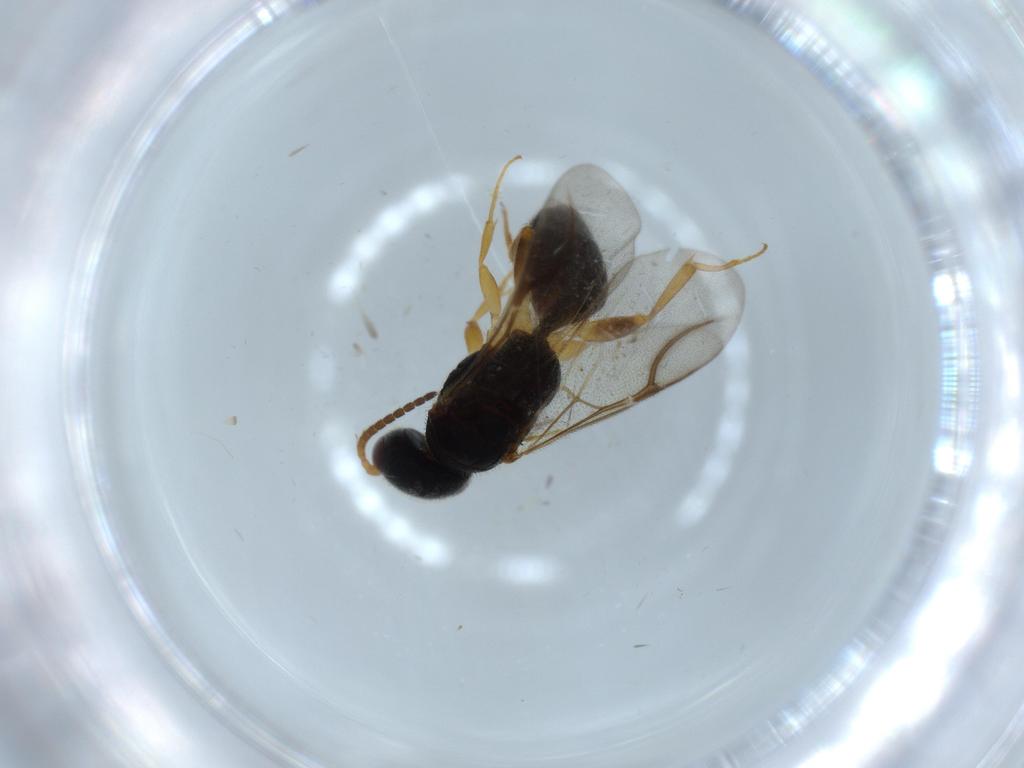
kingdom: Animalia
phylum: Arthropoda
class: Insecta
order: Hymenoptera
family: Bethylidae
